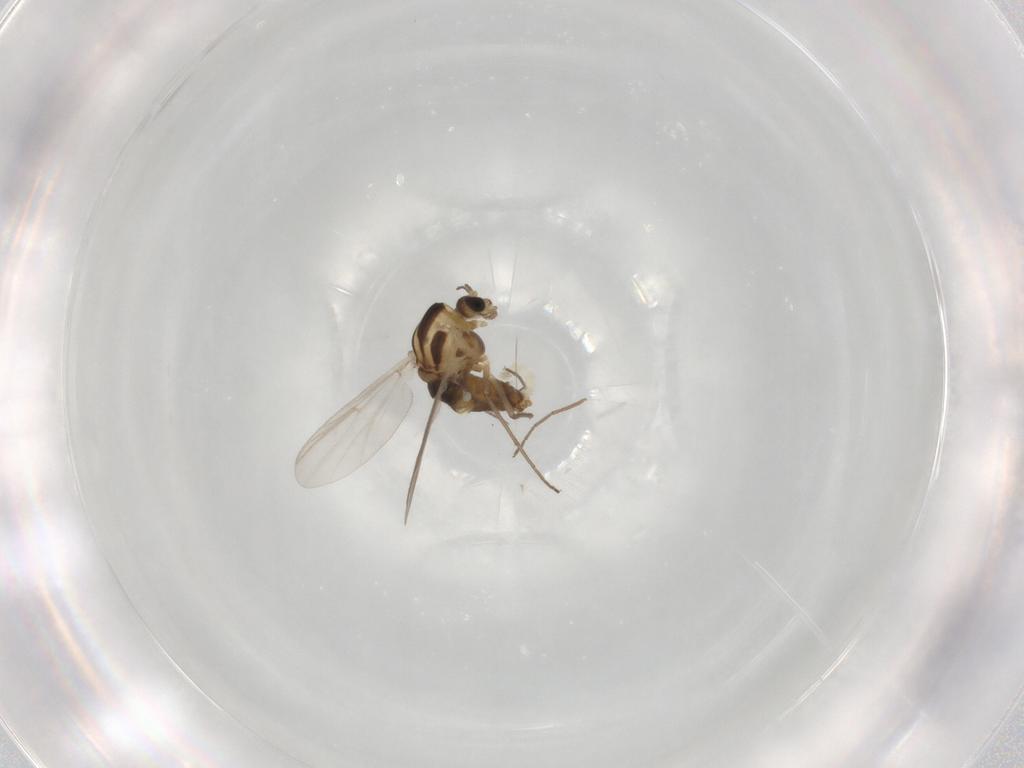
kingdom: Animalia
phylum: Arthropoda
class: Insecta
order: Diptera
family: Chironomidae
